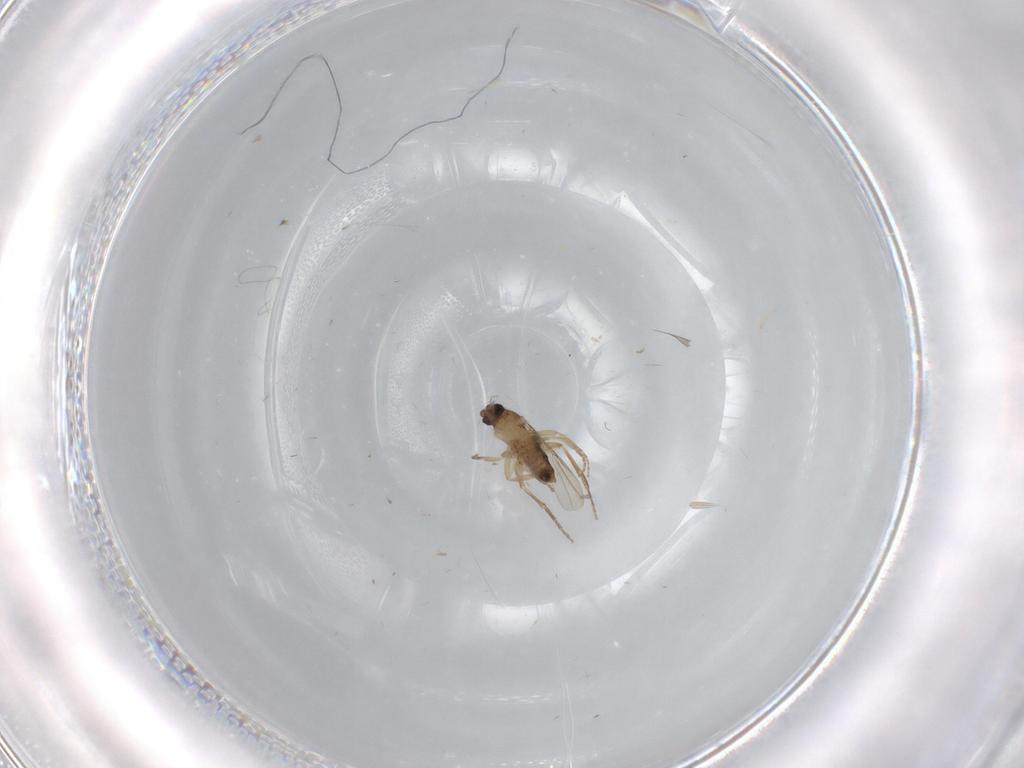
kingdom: Animalia
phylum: Arthropoda
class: Insecta
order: Diptera
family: Phoridae
